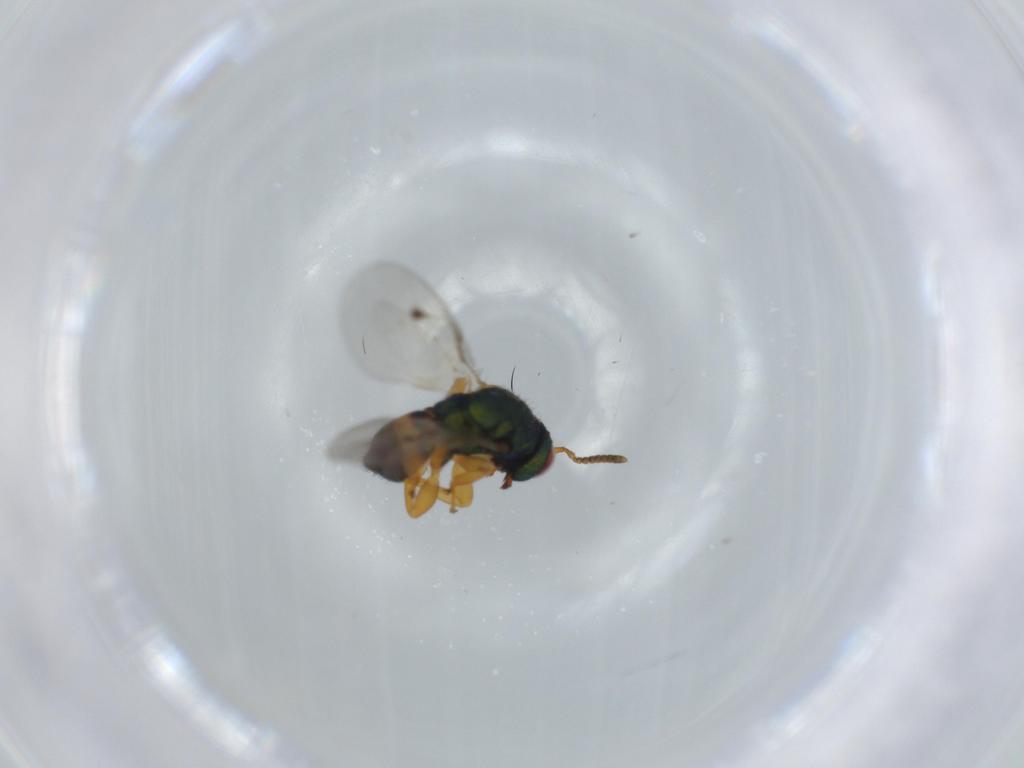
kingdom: Animalia
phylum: Arthropoda
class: Insecta
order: Hymenoptera
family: Pteromalidae
